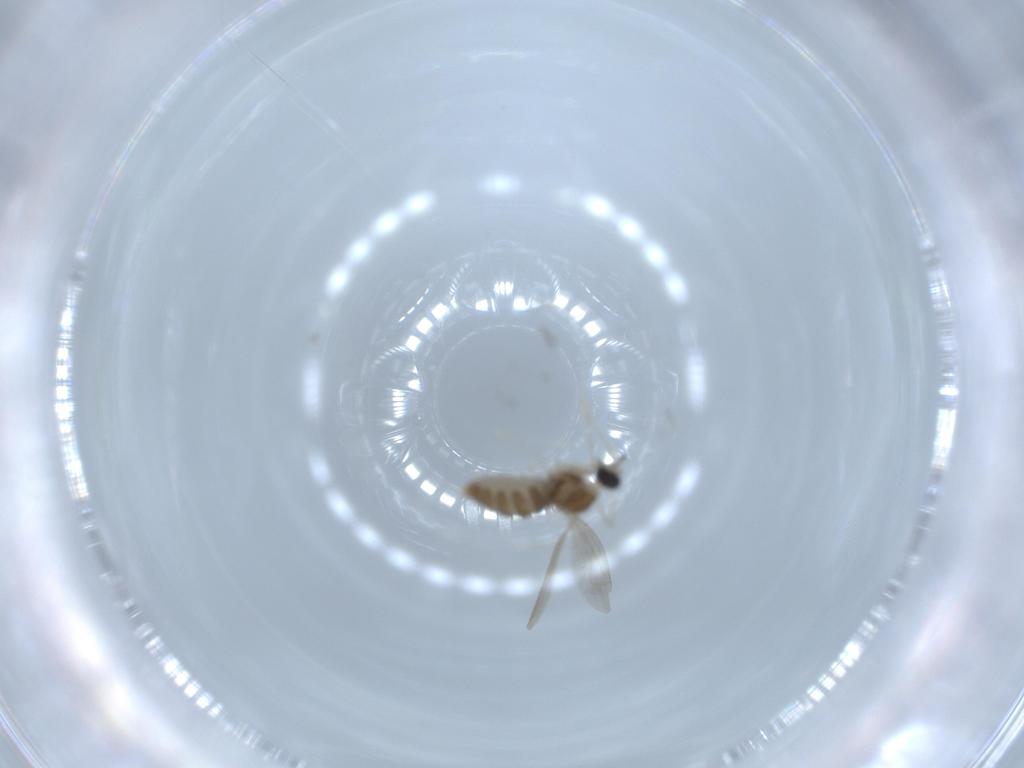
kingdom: Animalia
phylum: Arthropoda
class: Insecta
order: Diptera
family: Cecidomyiidae
